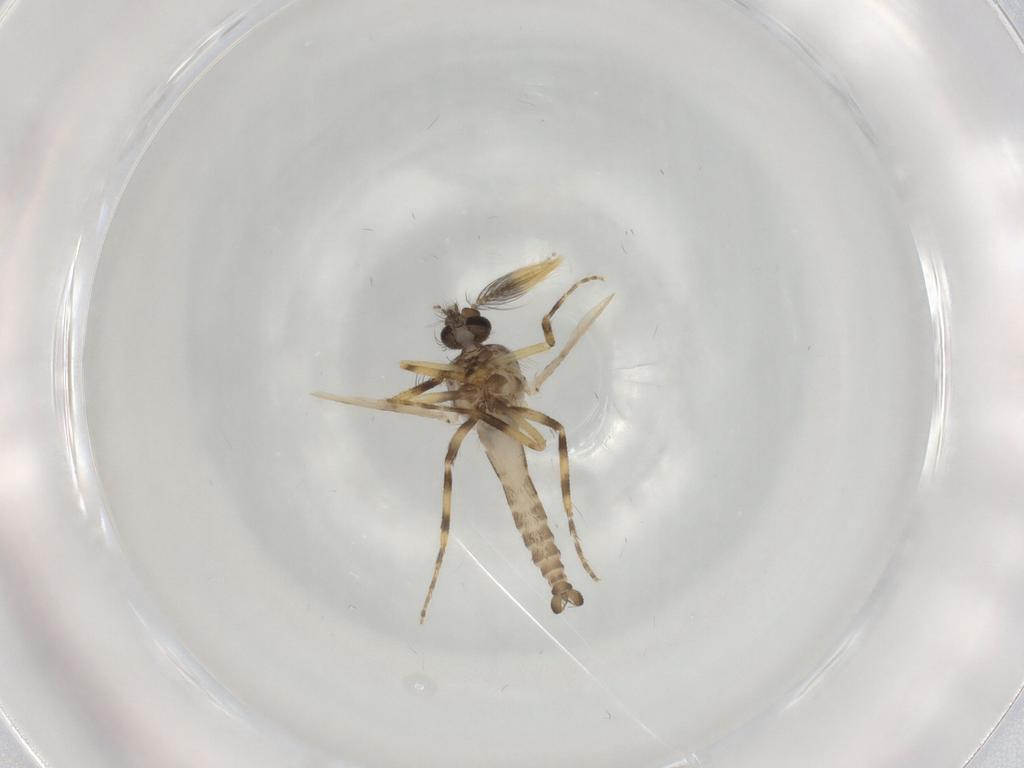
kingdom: Animalia
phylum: Arthropoda
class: Insecta
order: Diptera
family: Ceratopogonidae
